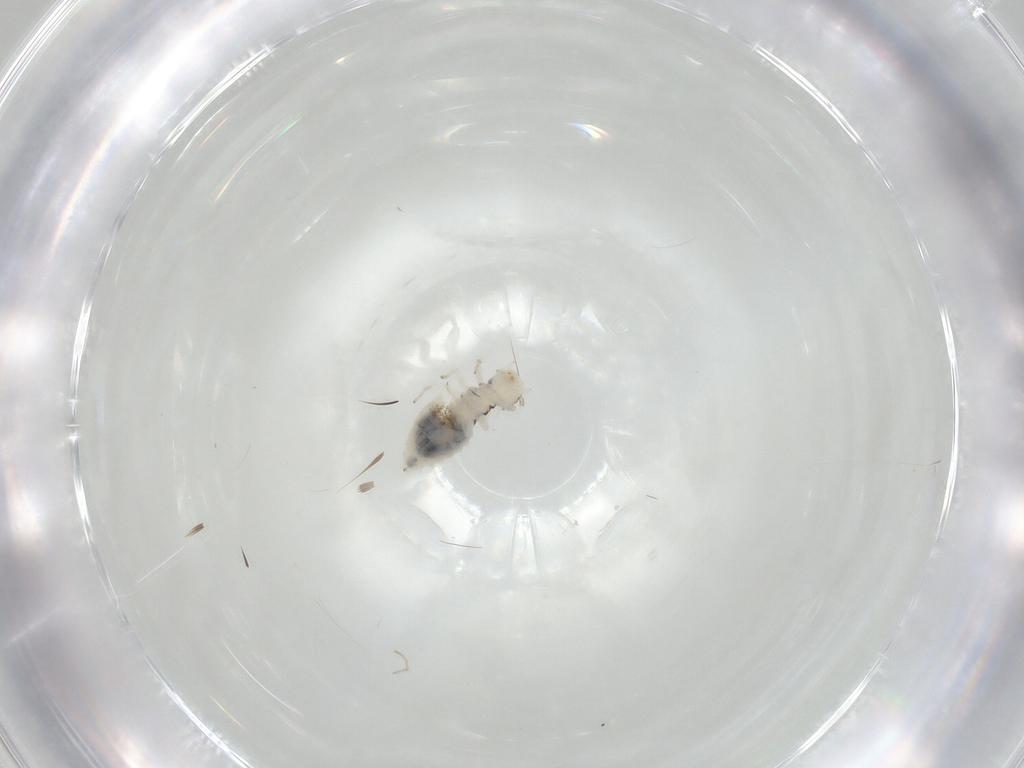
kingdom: Animalia
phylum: Arthropoda
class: Insecta
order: Psocodea
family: Caeciliusidae
